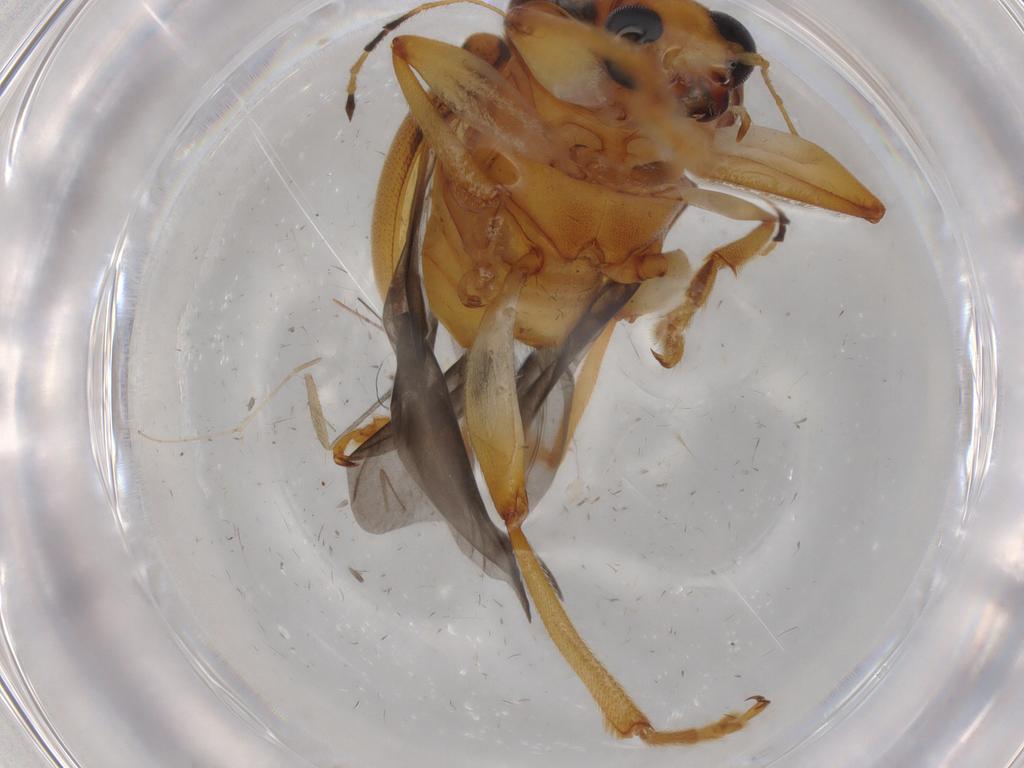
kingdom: Animalia
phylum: Arthropoda
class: Insecta
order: Coleoptera
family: Chrysomelidae
